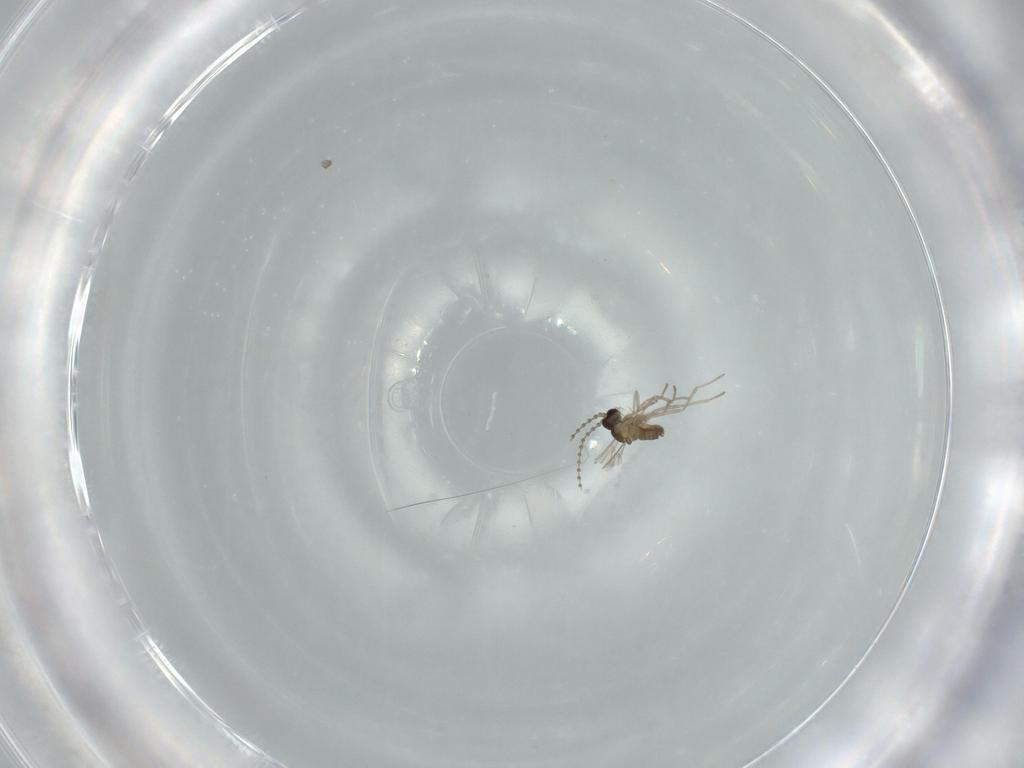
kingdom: Animalia
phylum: Arthropoda
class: Insecta
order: Diptera
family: Cecidomyiidae
